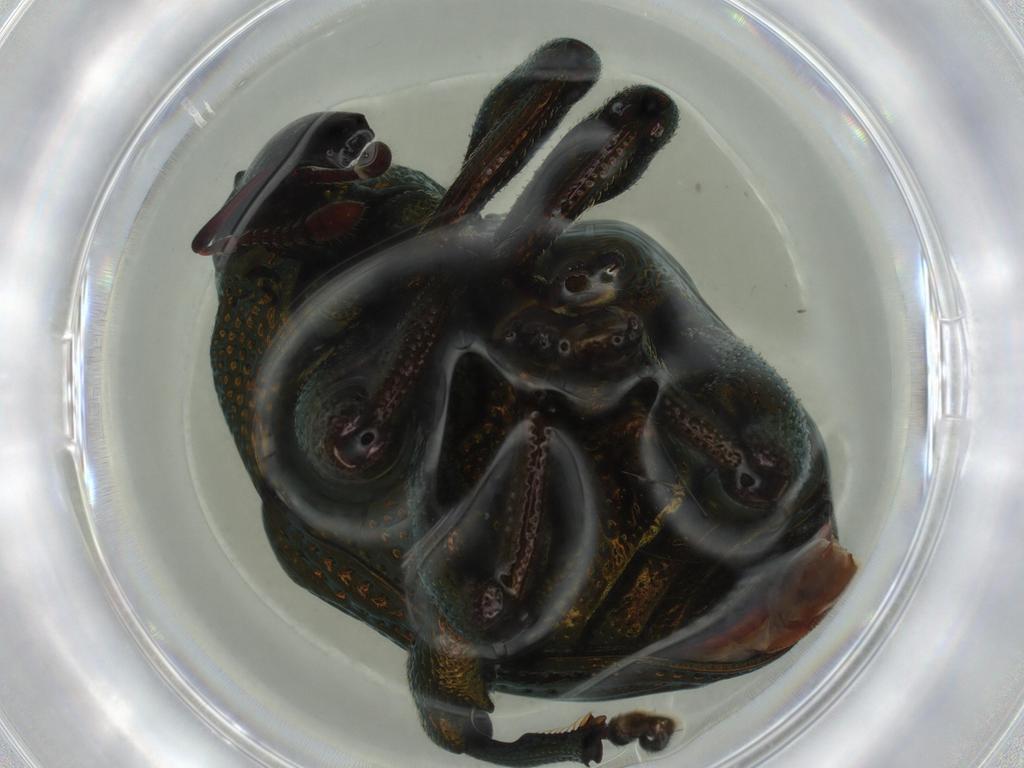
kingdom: Animalia
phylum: Arthropoda
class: Insecta
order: Coleoptera
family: Chrysomelidae
